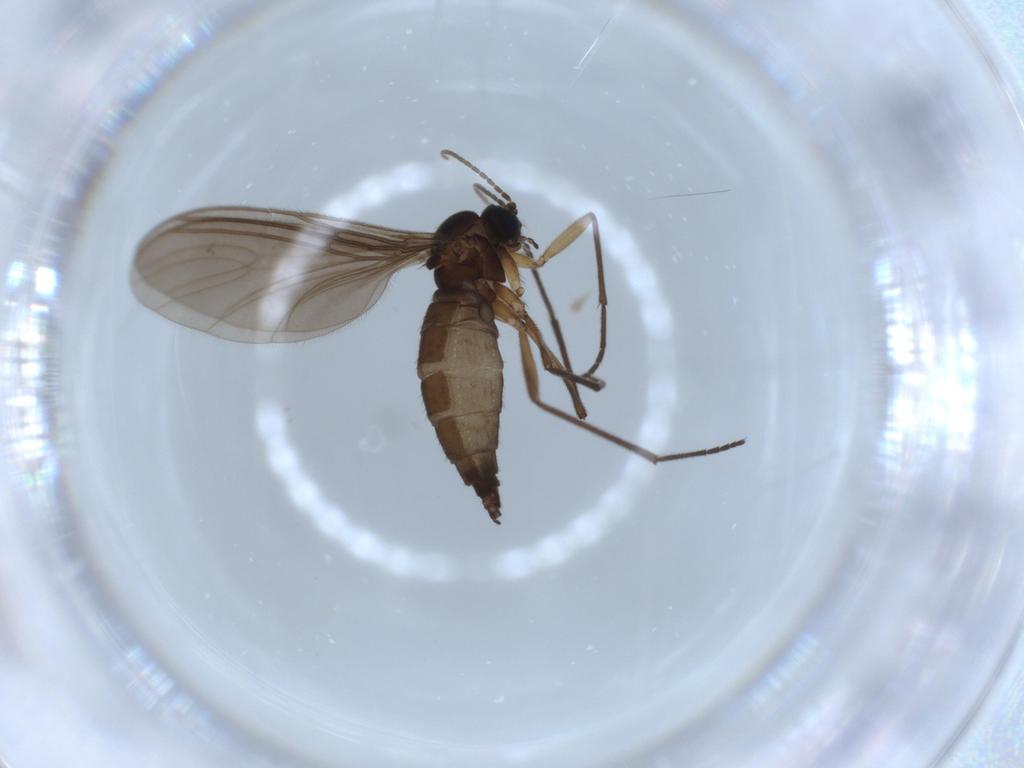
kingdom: Animalia
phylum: Arthropoda
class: Insecta
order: Diptera
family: Sciaridae
